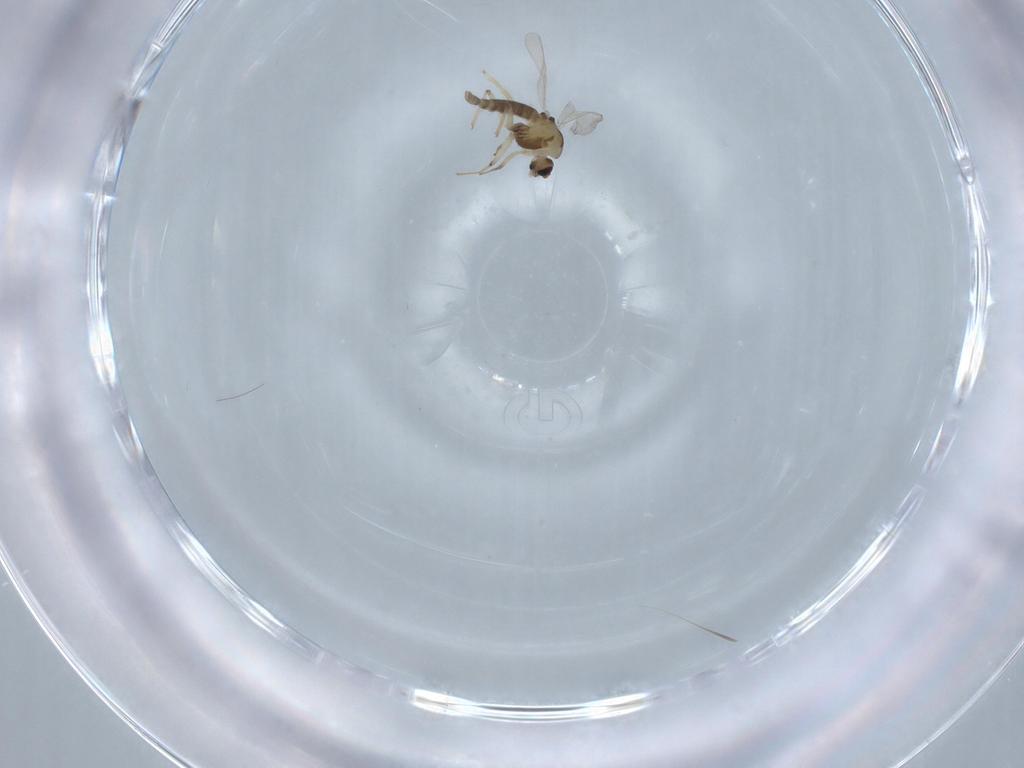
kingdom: Animalia
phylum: Arthropoda
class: Insecta
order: Diptera
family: Chironomidae
